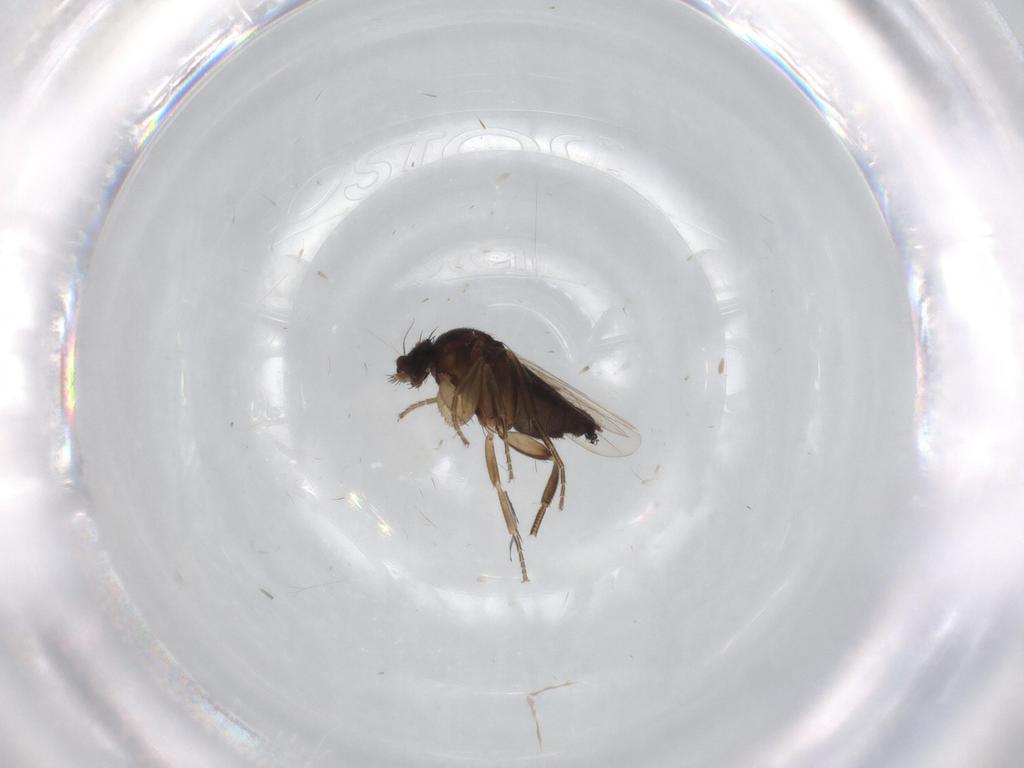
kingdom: Animalia
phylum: Arthropoda
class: Insecta
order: Diptera
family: Phoridae
